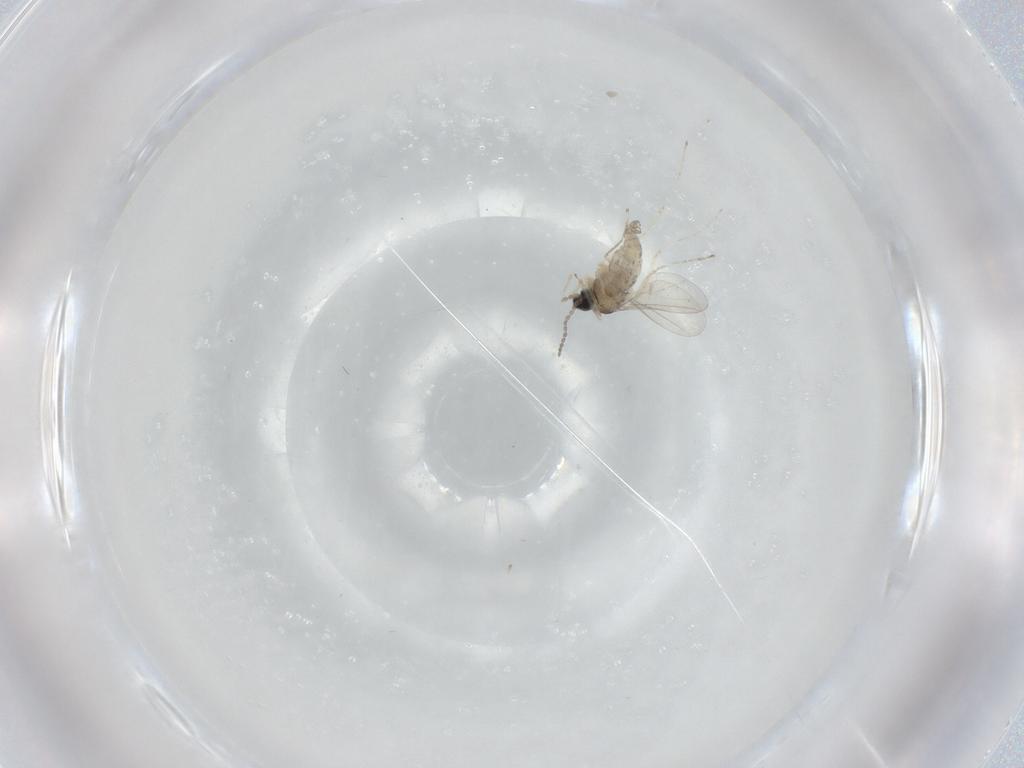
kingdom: Animalia
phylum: Arthropoda
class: Insecta
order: Diptera
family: Cecidomyiidae
